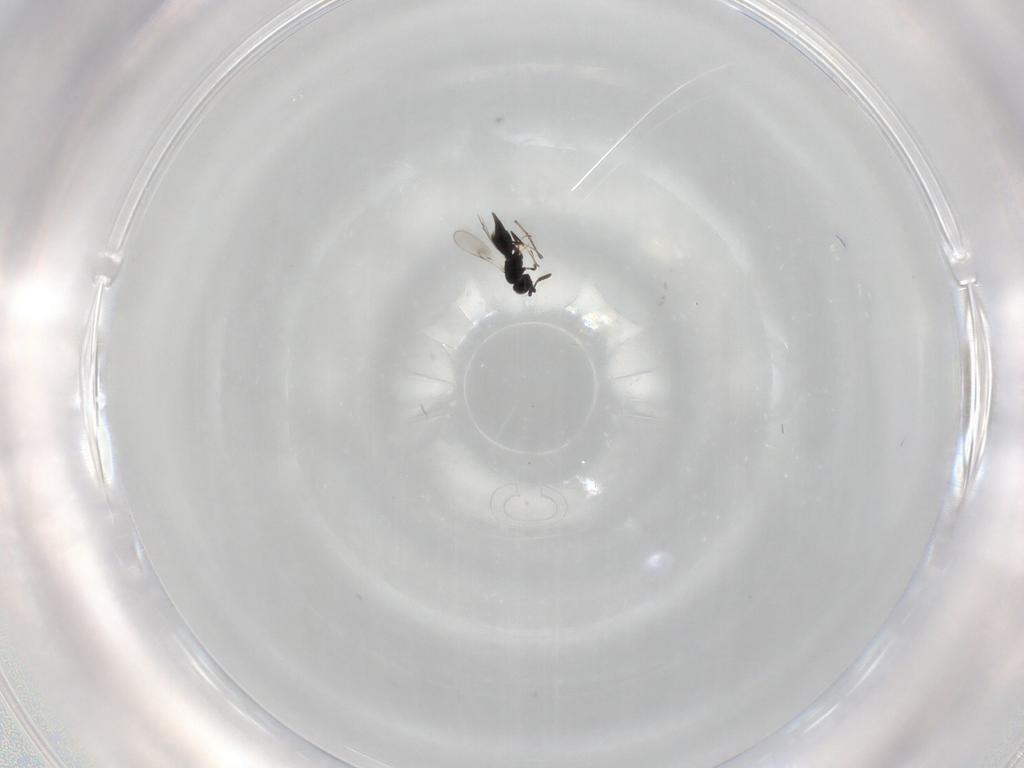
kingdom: Animalia
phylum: Arthropoda
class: Insecta
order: Hymenoptera
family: Scelionidae
